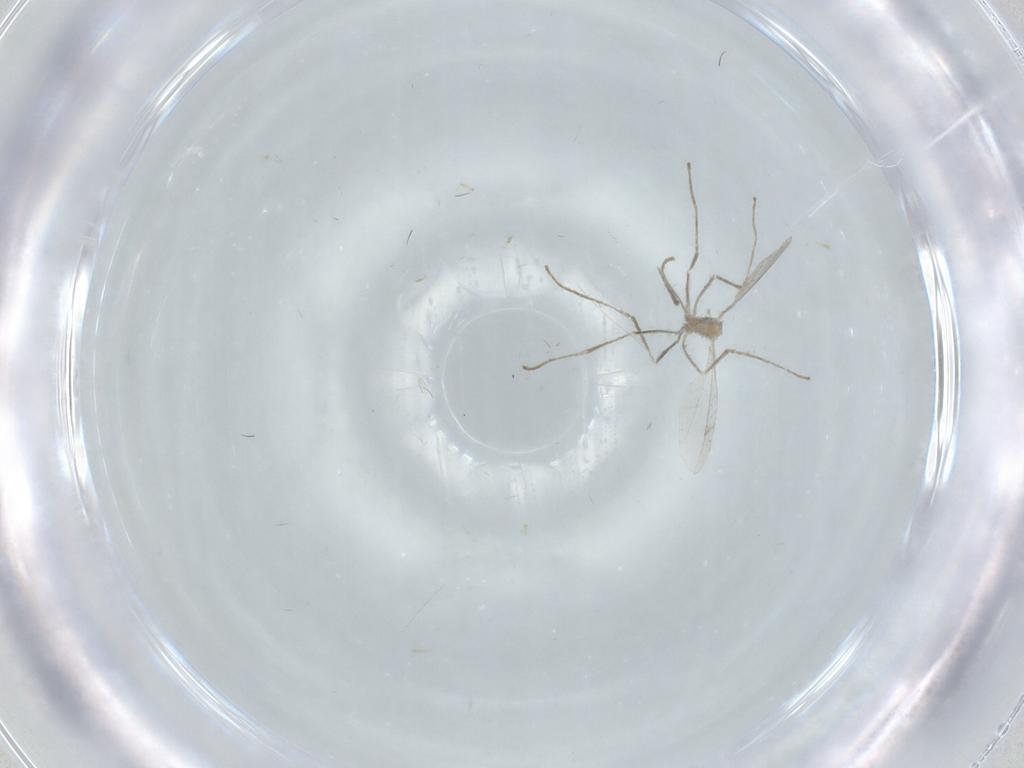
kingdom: Animalia
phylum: Arthropoda
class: Insecta
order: Diptera
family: Cecidomyiidae
